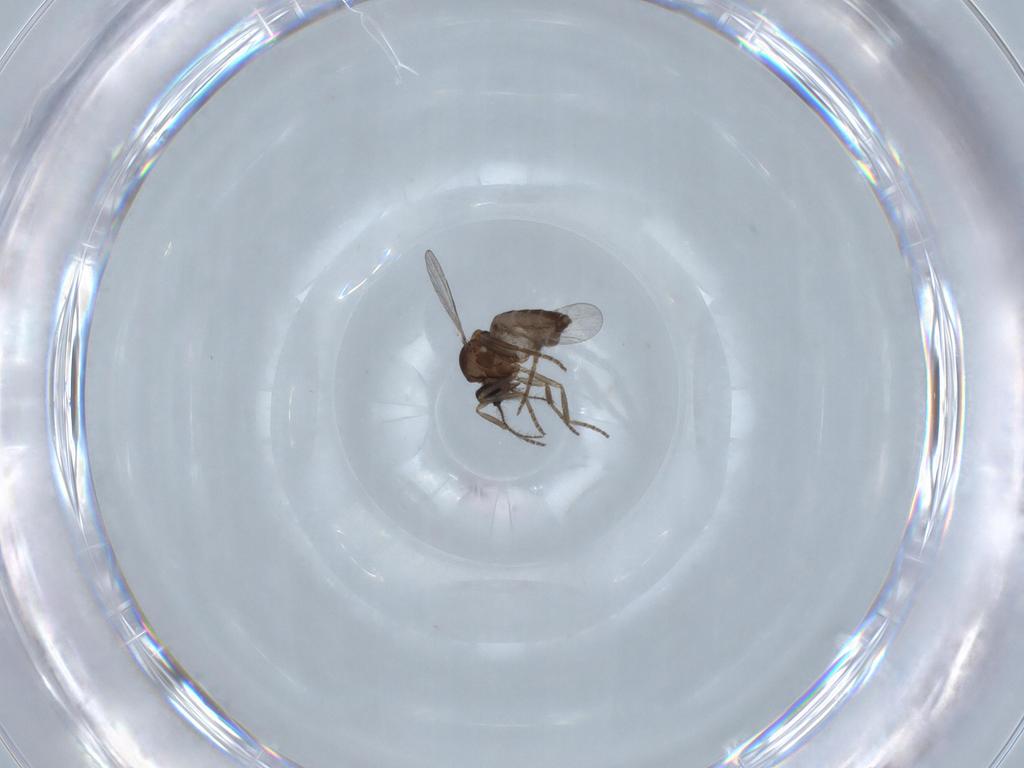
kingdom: Animalia
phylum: Arthropoda
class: Insecta
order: Diptera
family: Chironomidae
